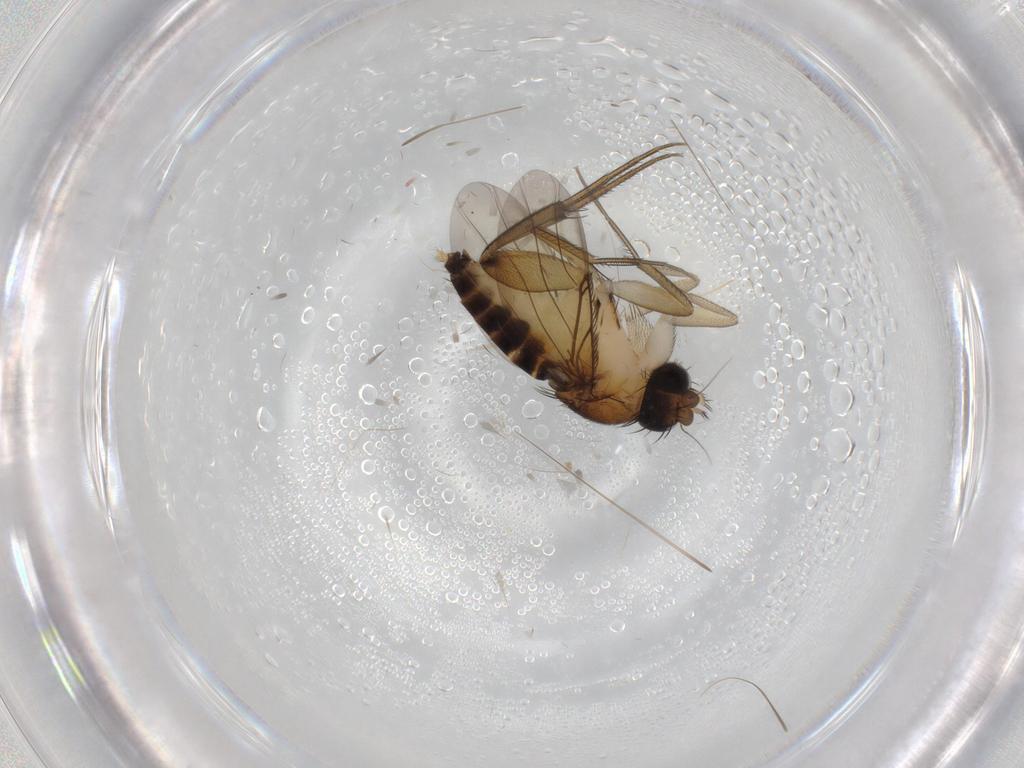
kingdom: Animalia
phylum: Arthropoda
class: Insecta
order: Diptera
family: Phoridae
